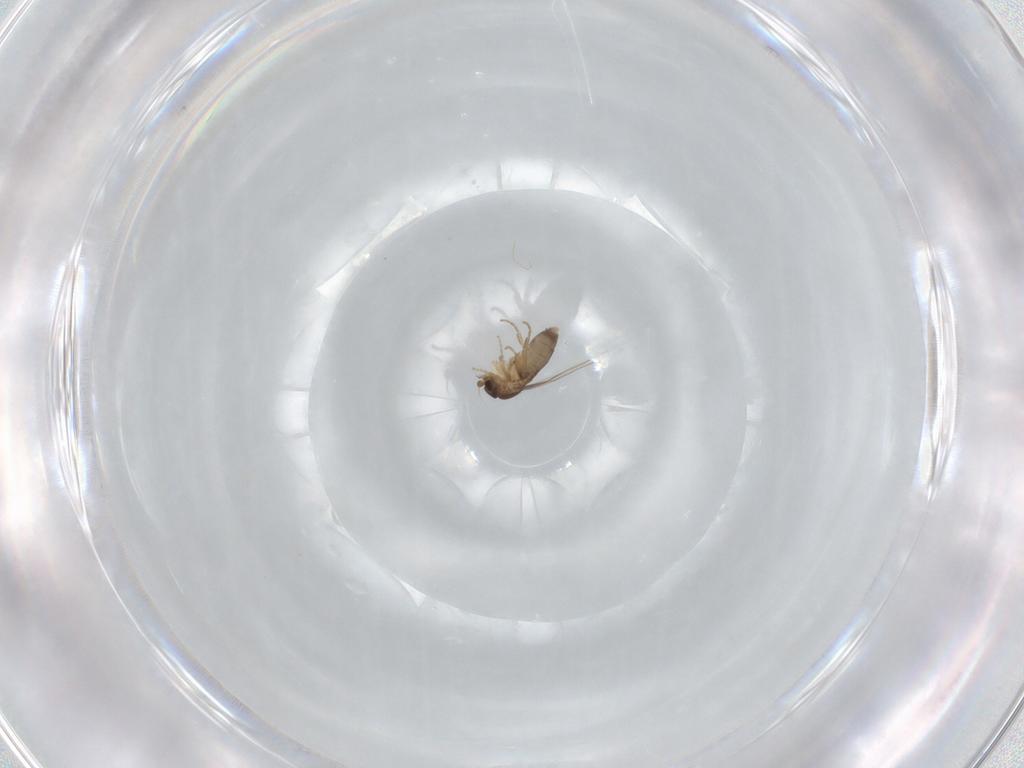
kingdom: Animalia
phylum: Arthropoda
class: Insecta
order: Diptera
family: Phoridae
